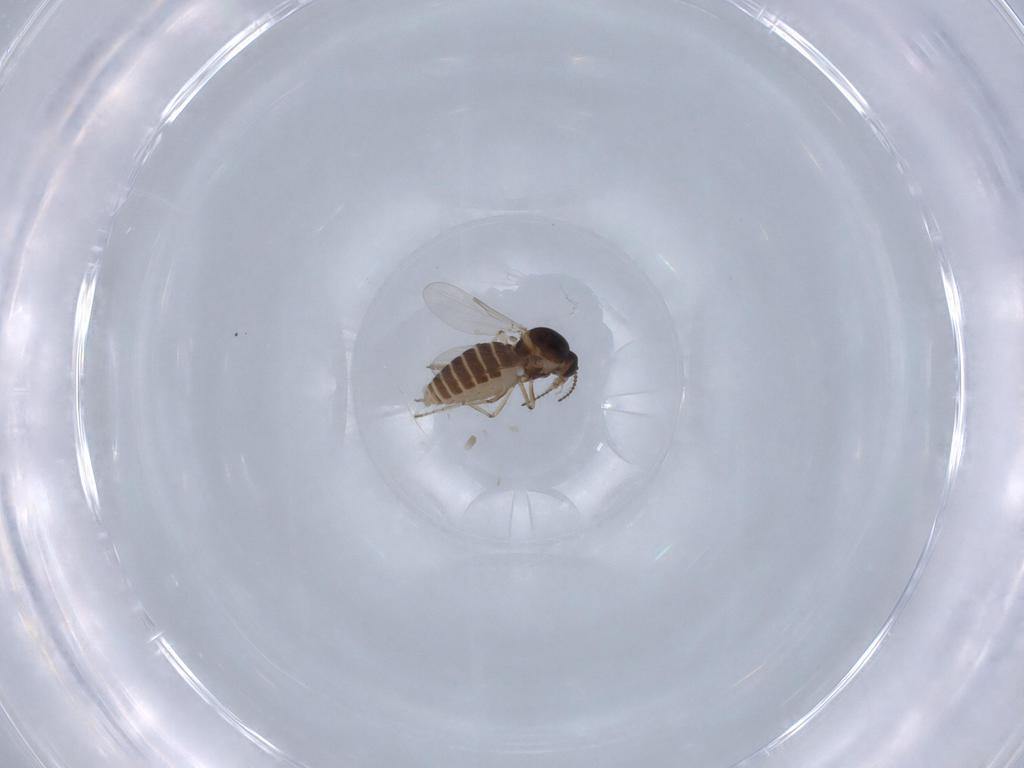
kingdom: Animalia
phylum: Arthropoda
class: Insecta
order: Diptera
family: Ceratopogonidae
